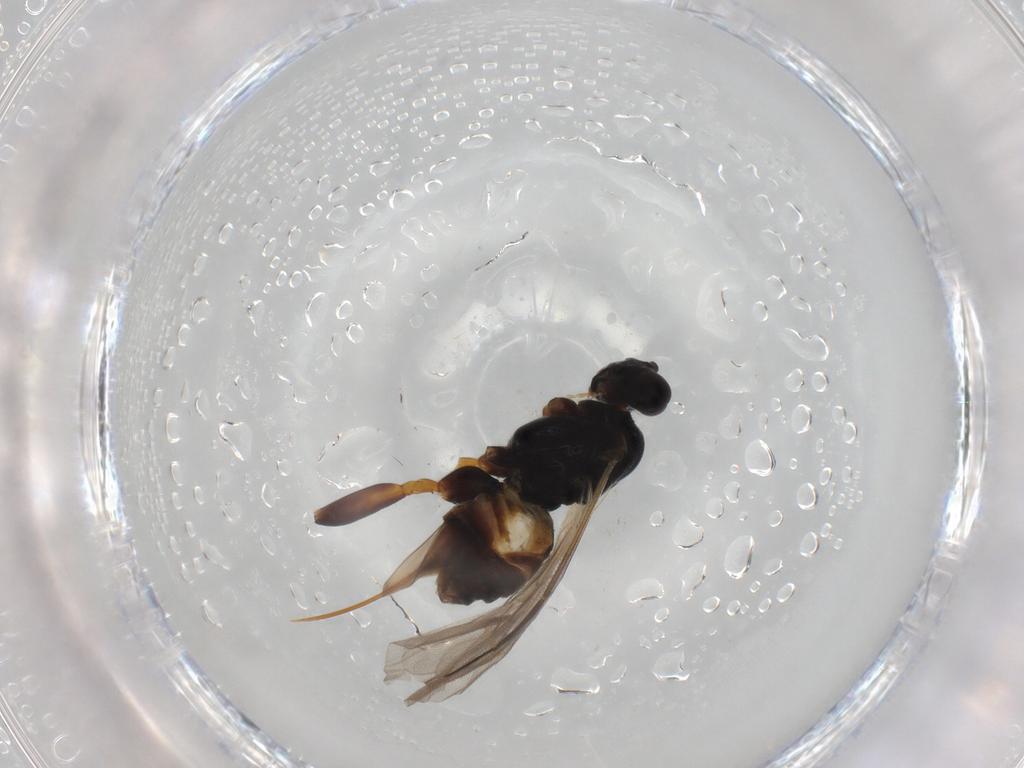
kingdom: Animalia
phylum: Arthropoda
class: Insecta
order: Hymenoptera
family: Braconidae
